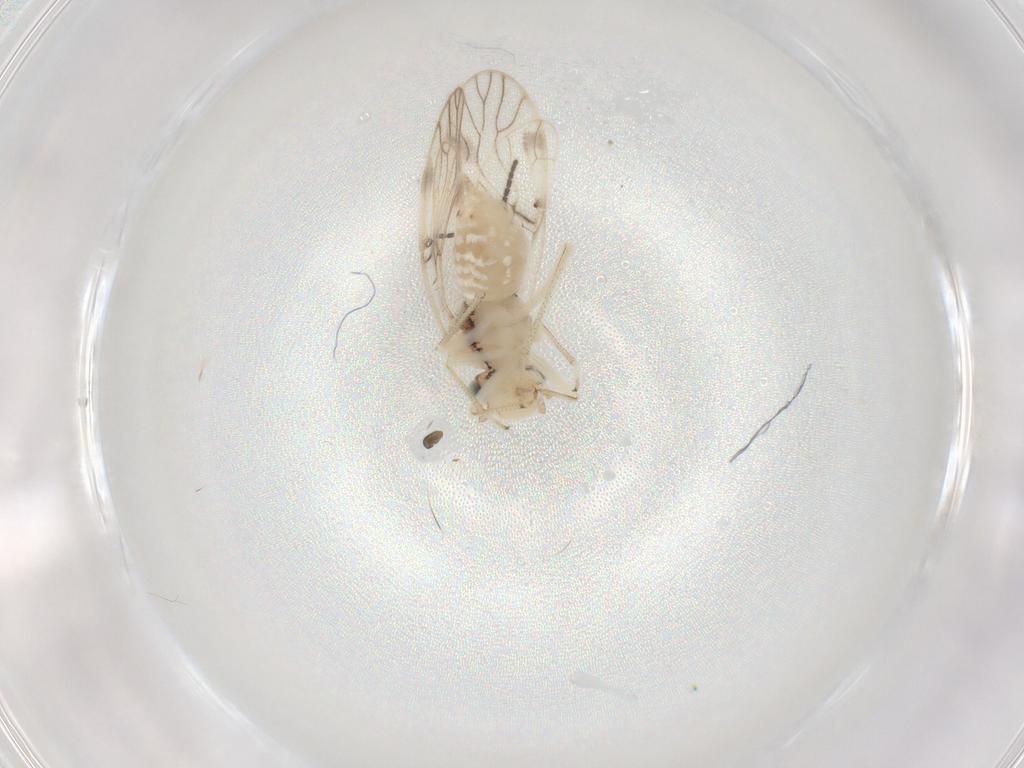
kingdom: Animalia
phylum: Arthropoda
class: Insecta
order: Psocodea
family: Caeciliusidae
